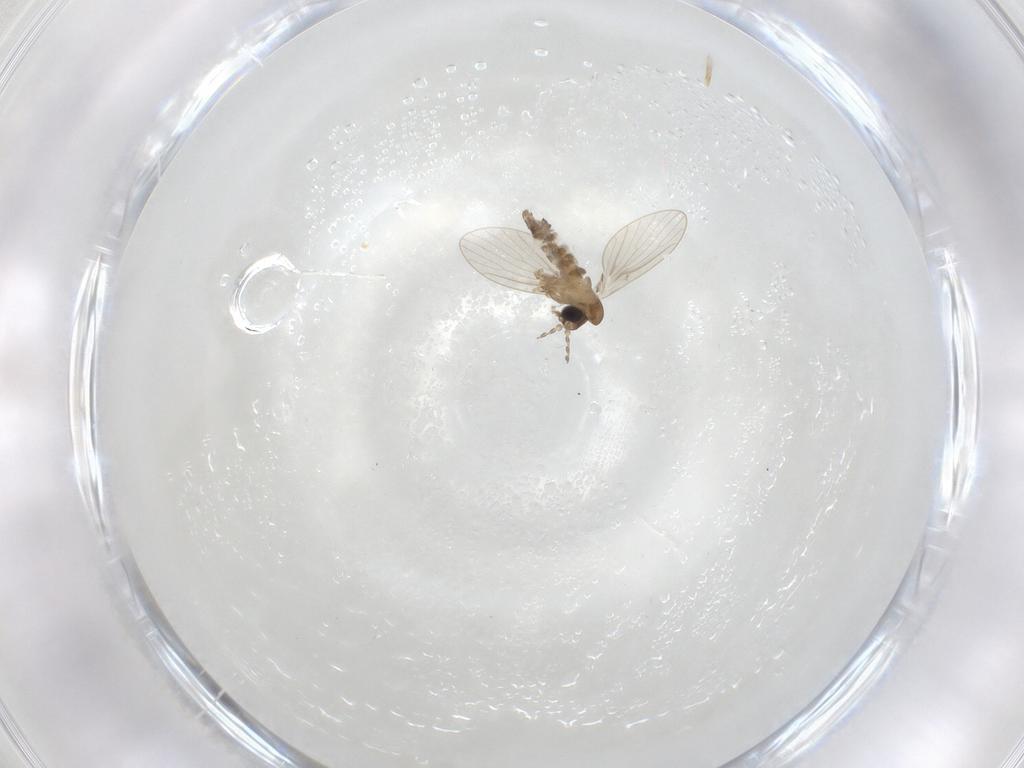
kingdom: Animalia
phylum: Arthropoda
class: Insecta
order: Diptera
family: Psychodidae
